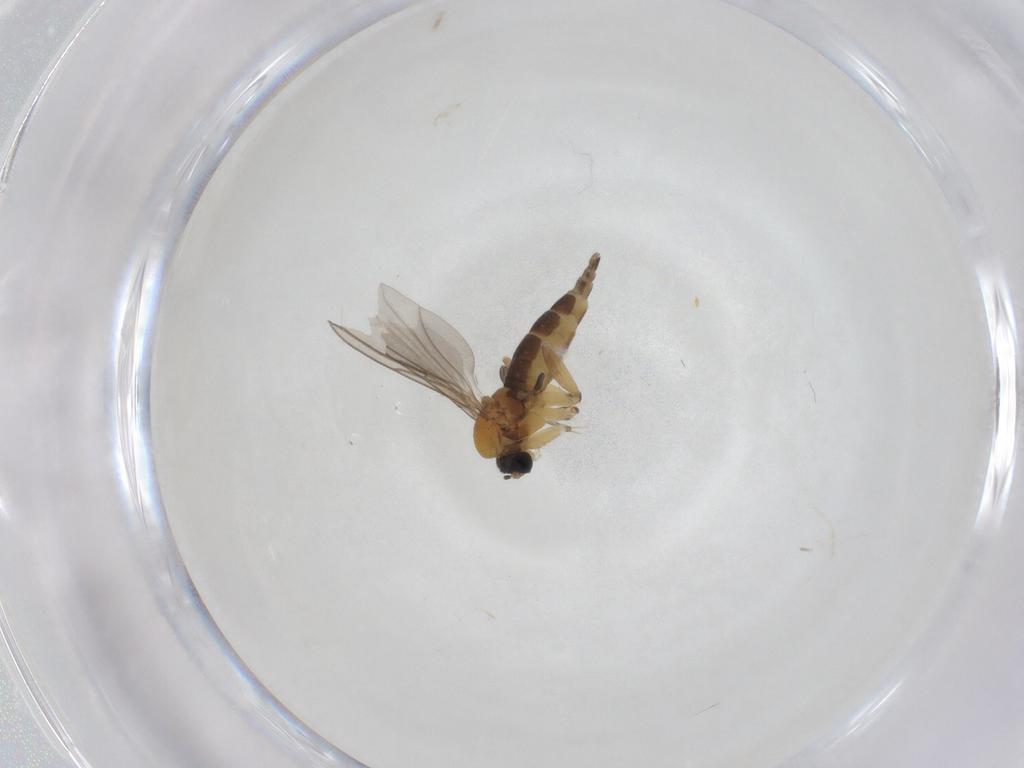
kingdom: Animalia
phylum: Arthropoda
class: Insecta
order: Diptera
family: Sciaridae
